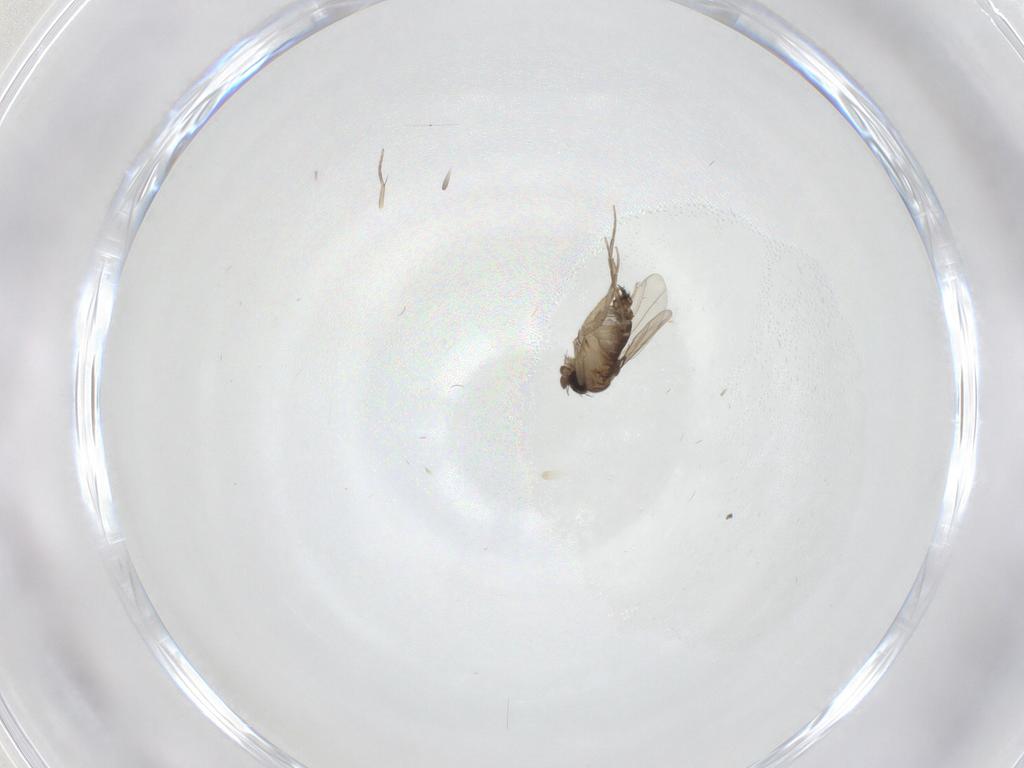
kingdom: Animalia
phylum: Arthropoda
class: Insecta
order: Diptera
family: Phoridae
